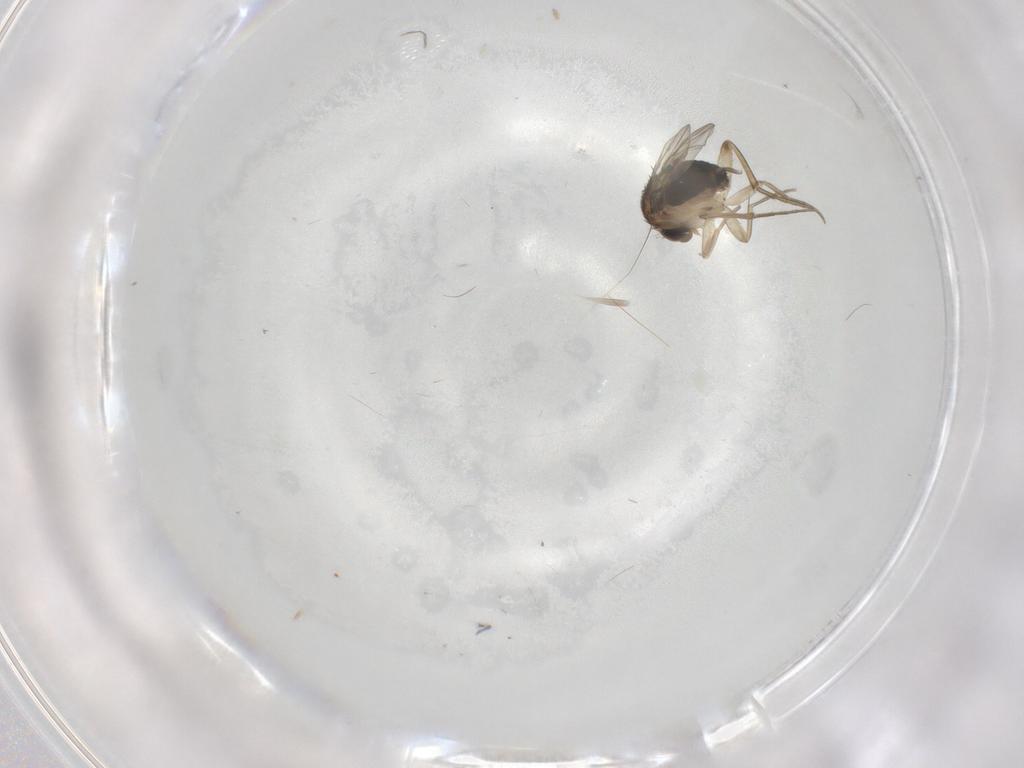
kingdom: Animalia
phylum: Arthropoda
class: Insecta
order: Diptera
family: Sciaridae
